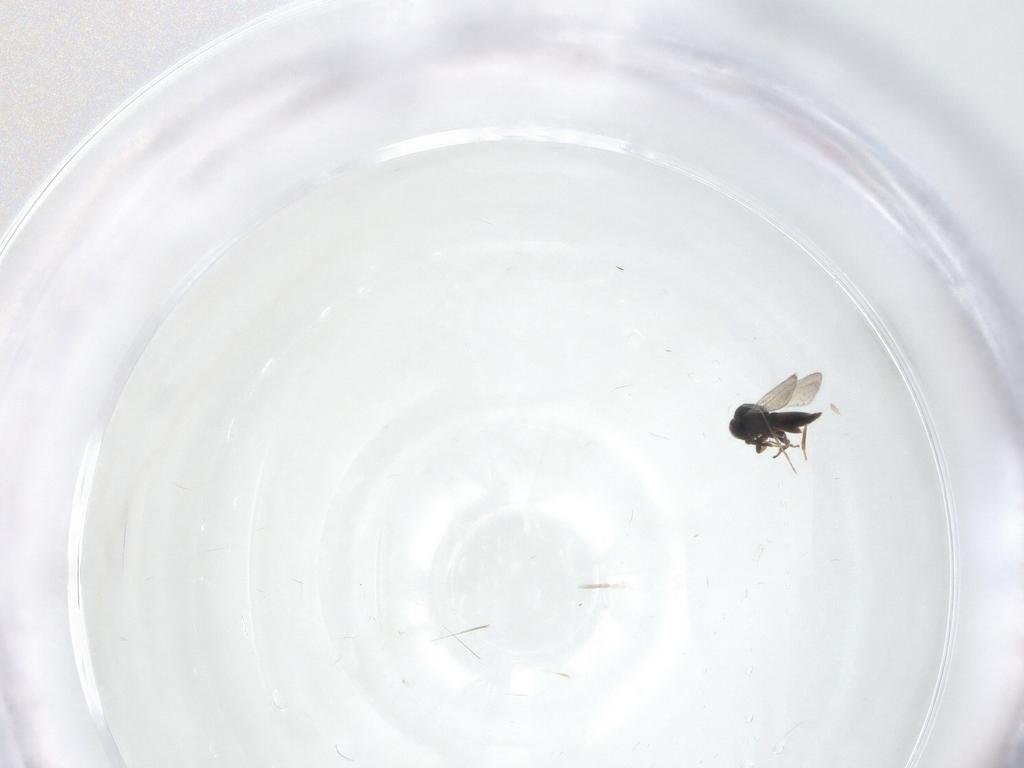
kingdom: Animalia
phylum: Arthropoda
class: Insecta
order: Hymenoptera
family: Platygastridae
